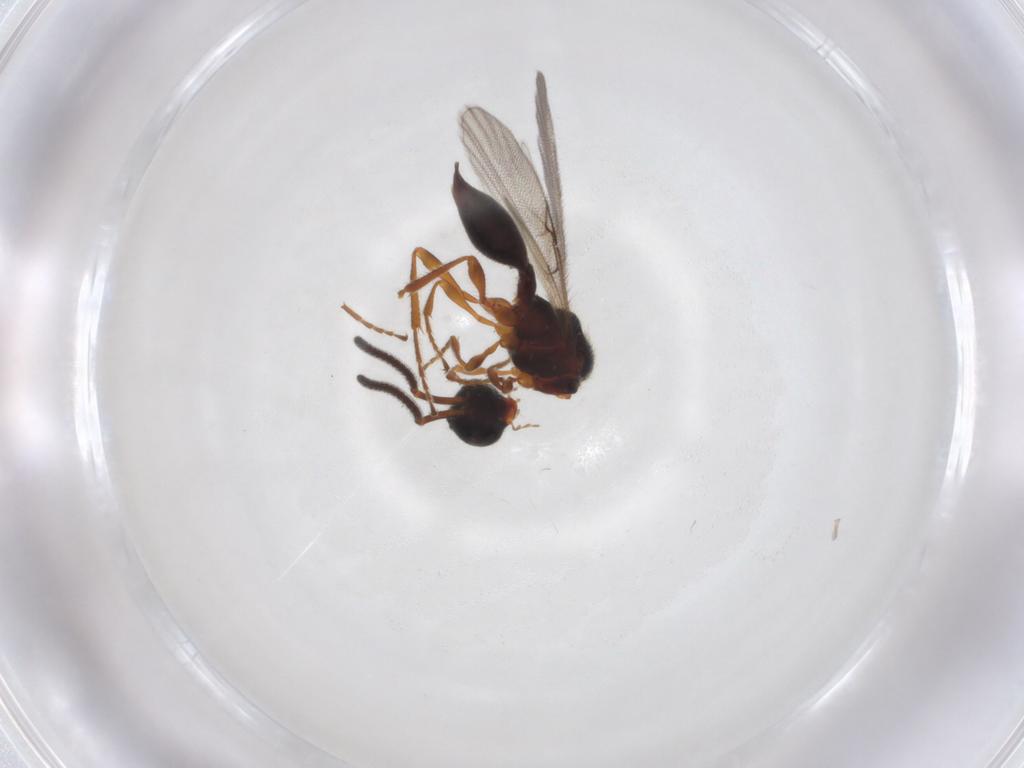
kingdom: Animalia
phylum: Arthropoda
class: Insecta
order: Hymenoptera
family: Diapriidae
